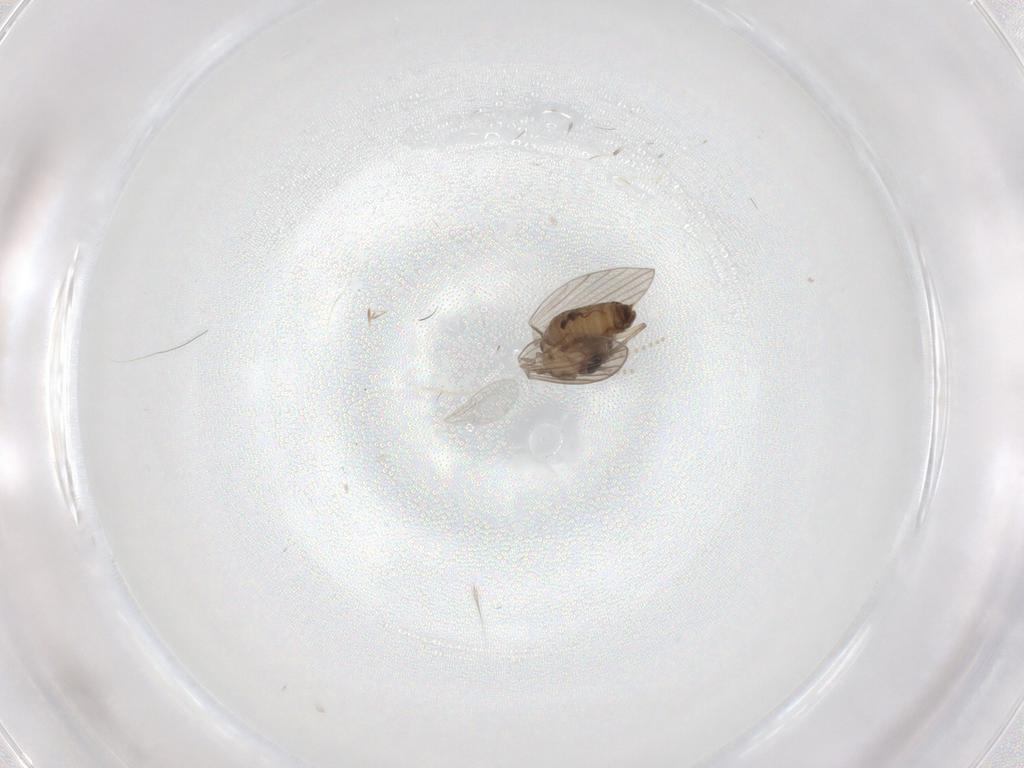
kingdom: Animalia
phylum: Arthropoda
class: Insecta
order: Diptera
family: Psychodidae
